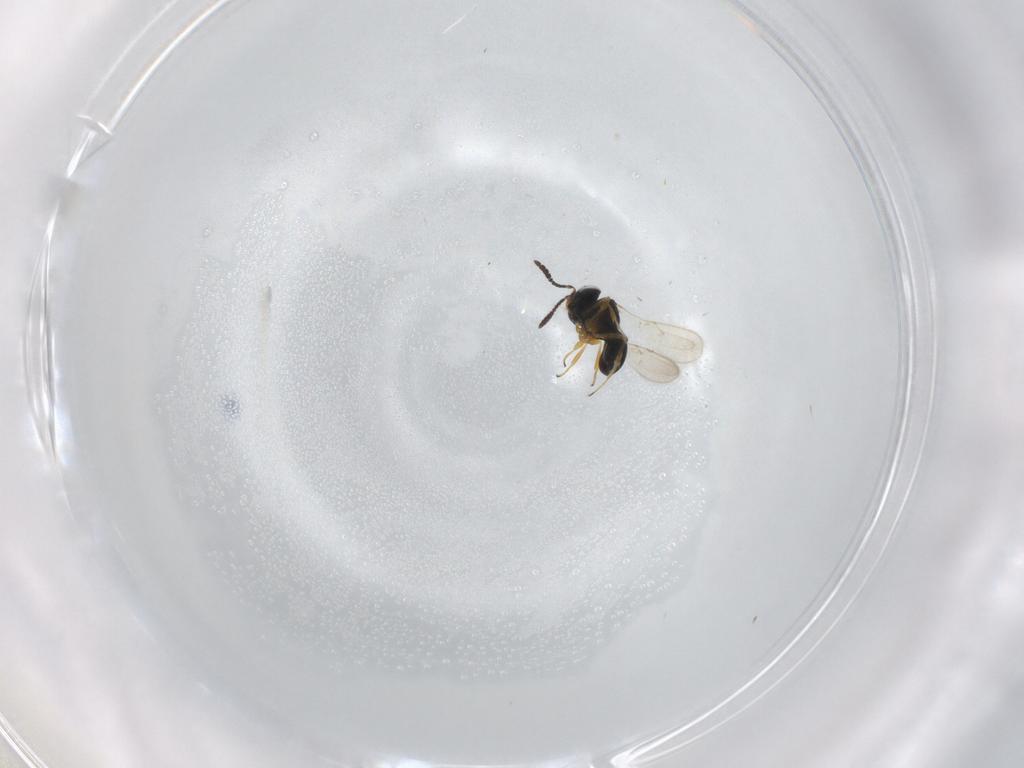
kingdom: Animalia
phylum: Arthropoda
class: Insecta
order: Hymenoptera
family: Scelionidae
